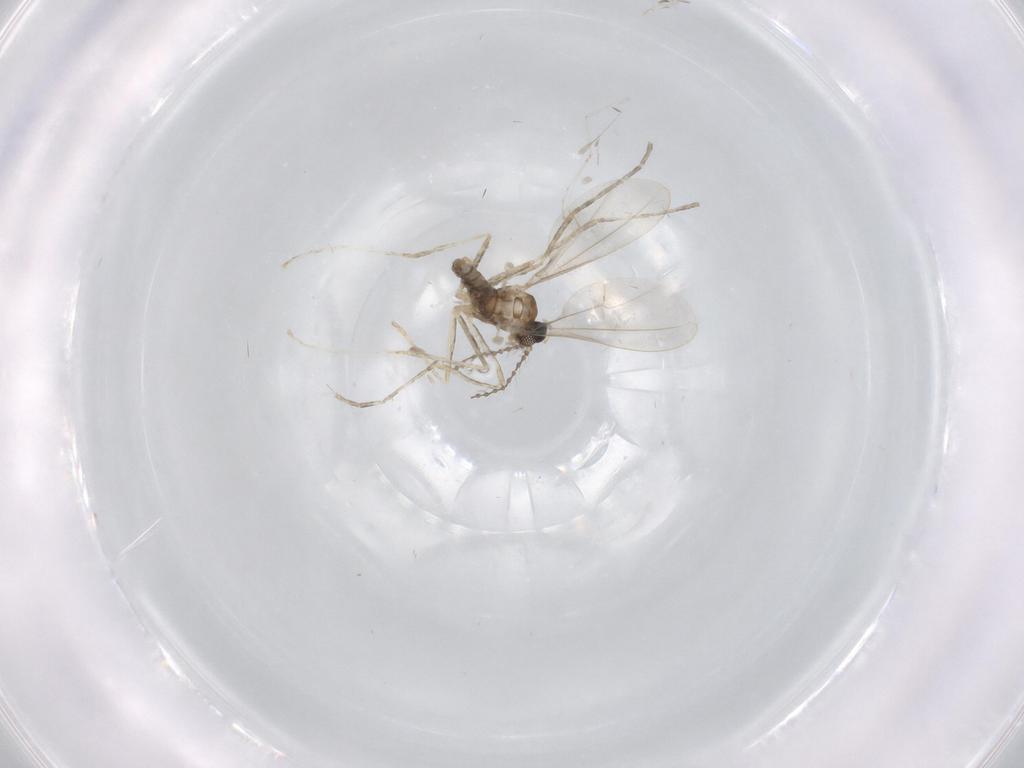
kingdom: Animalia
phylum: Arthropoda
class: Insecta
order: Diptera
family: Cecidomyiidae
